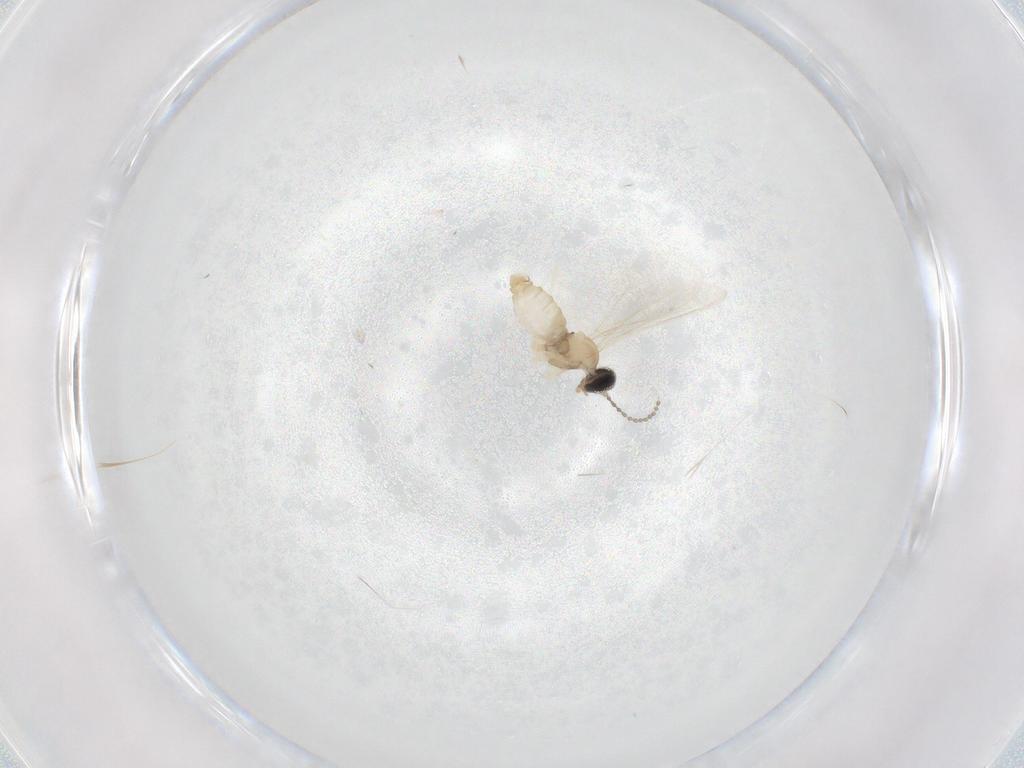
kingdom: Animalia
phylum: Arthropoda
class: Insecta
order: Diptera
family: Cecidomyiidae
